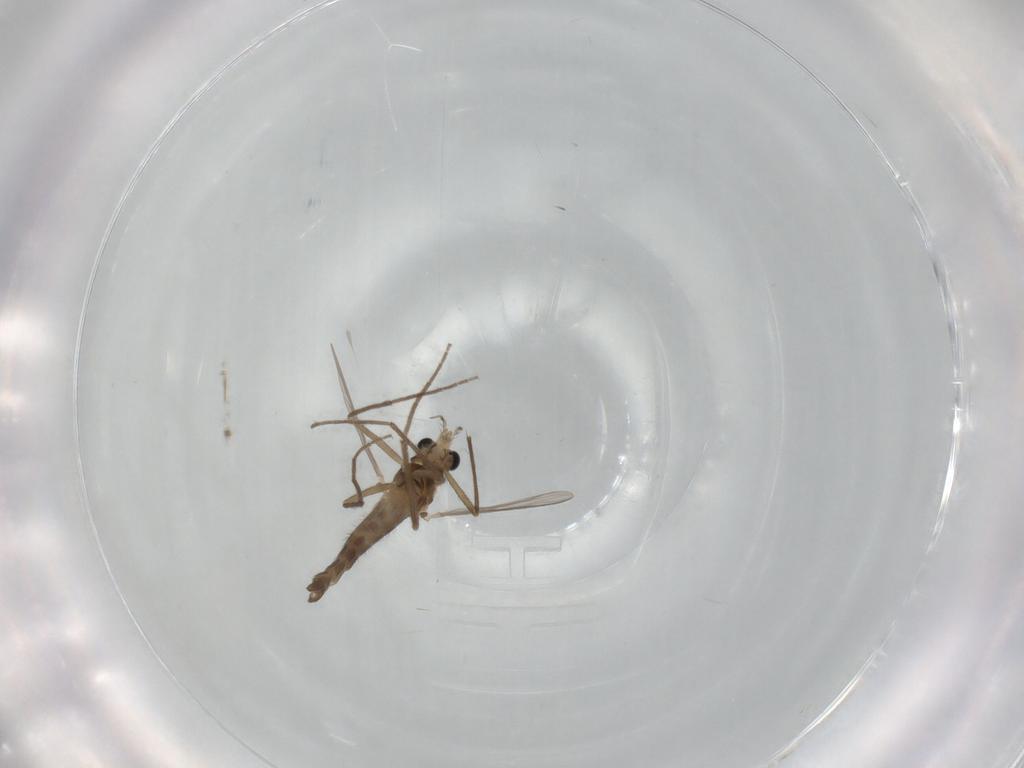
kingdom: Animalia
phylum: Arthropoda
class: Insecta
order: Diptera
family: Chironomidae
